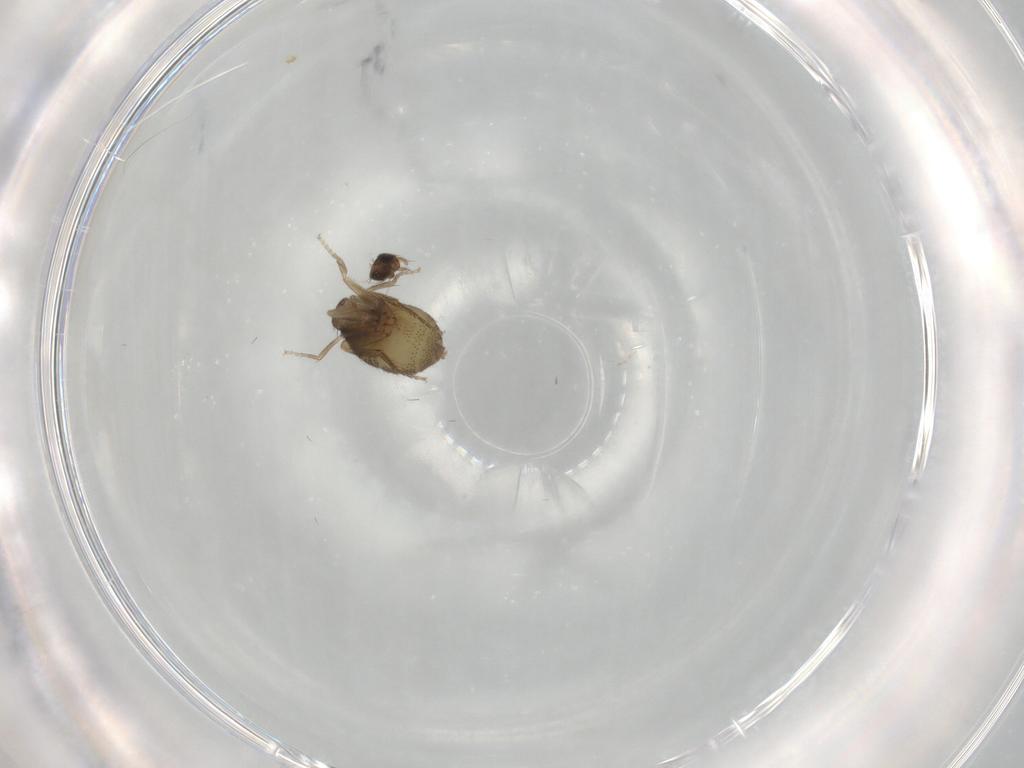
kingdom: Animalia
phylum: Arthropoda
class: Insecta
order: Diptera
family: Phoridae
